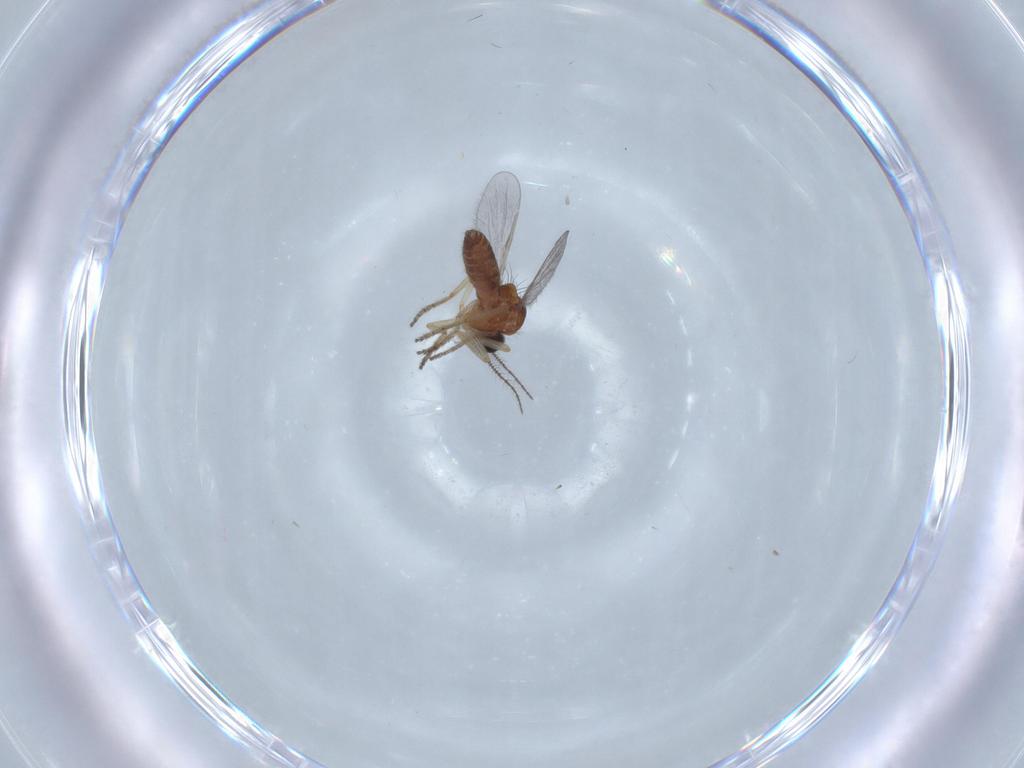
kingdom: Animalia
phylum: Arthropoda
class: Insecta
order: Diptera
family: Ceratopogonidae
